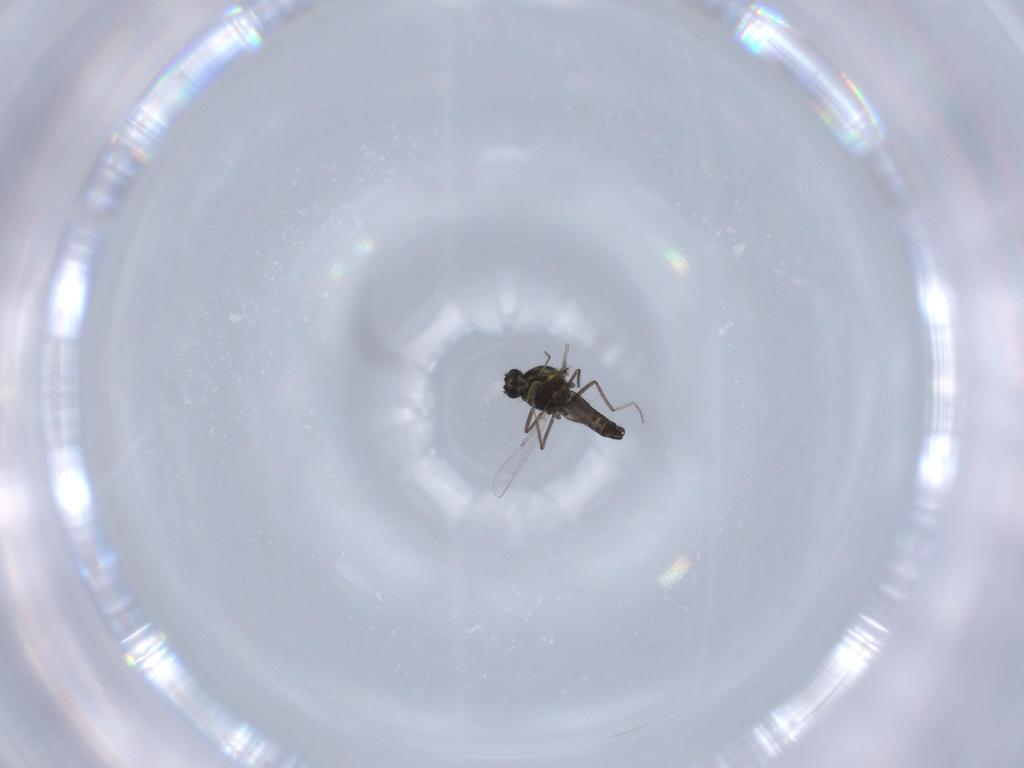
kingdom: Animalia
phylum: Arthropoda
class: Insecta
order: Diptera
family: Ceratopogonidae
